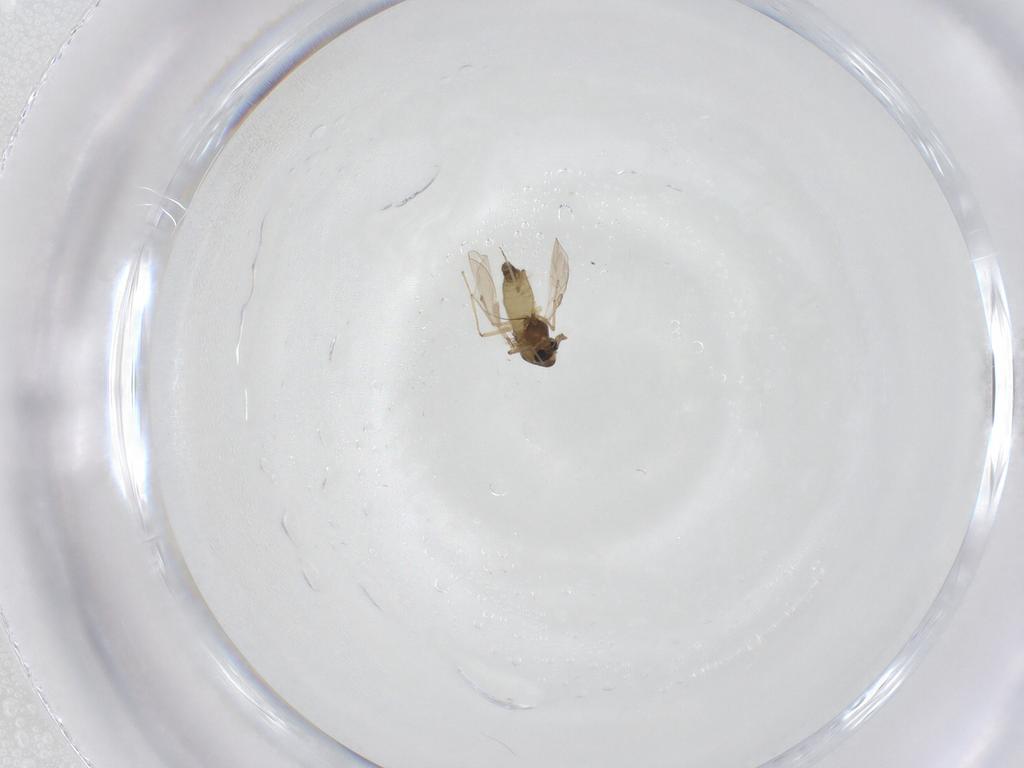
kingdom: Animalia
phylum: Arthropoda
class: Insecta
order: Diptera
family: Chironomidae
